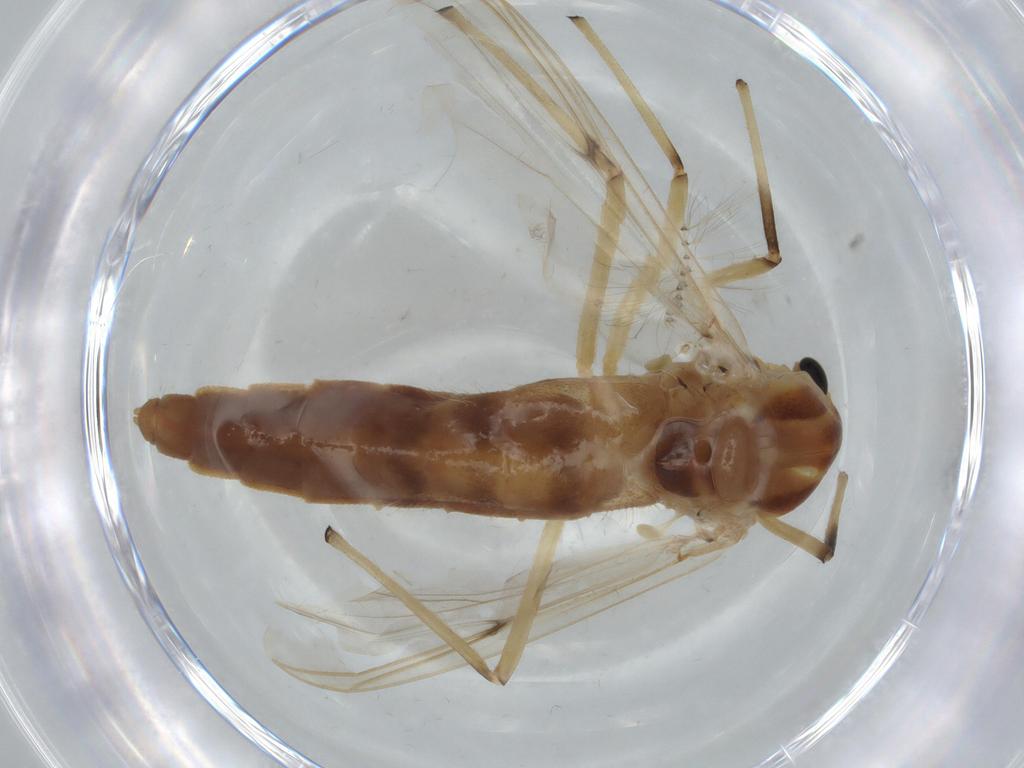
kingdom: Animalia
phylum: Arthropoda
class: Insecta
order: Diptera
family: Chironomidae
